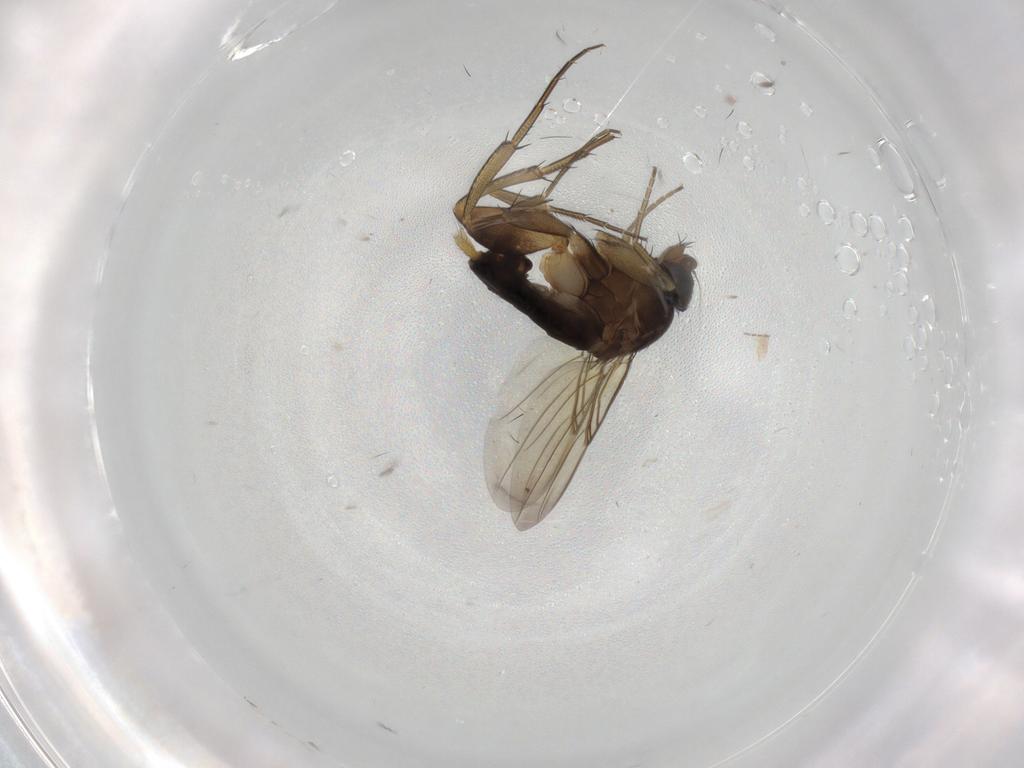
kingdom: Animalia
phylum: Arthropoda
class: Insecta
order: Diptera
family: Phoridae
